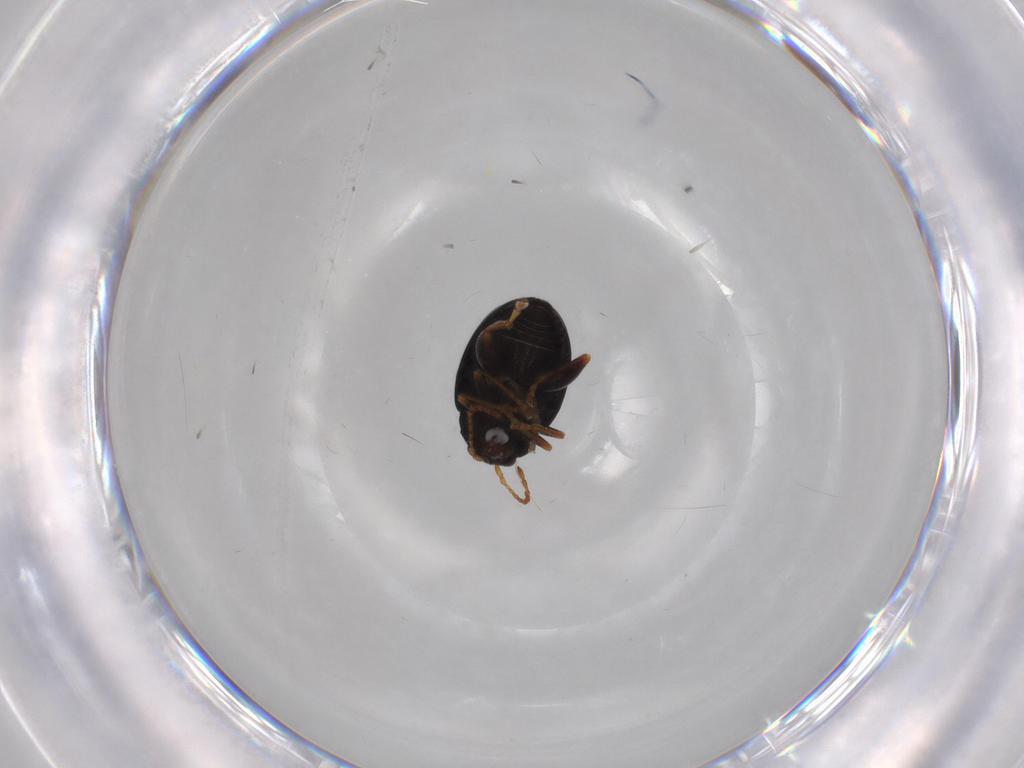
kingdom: Animalia
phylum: Arthropoda
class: Insecta
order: Coleoptera
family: Chrysomelidae
